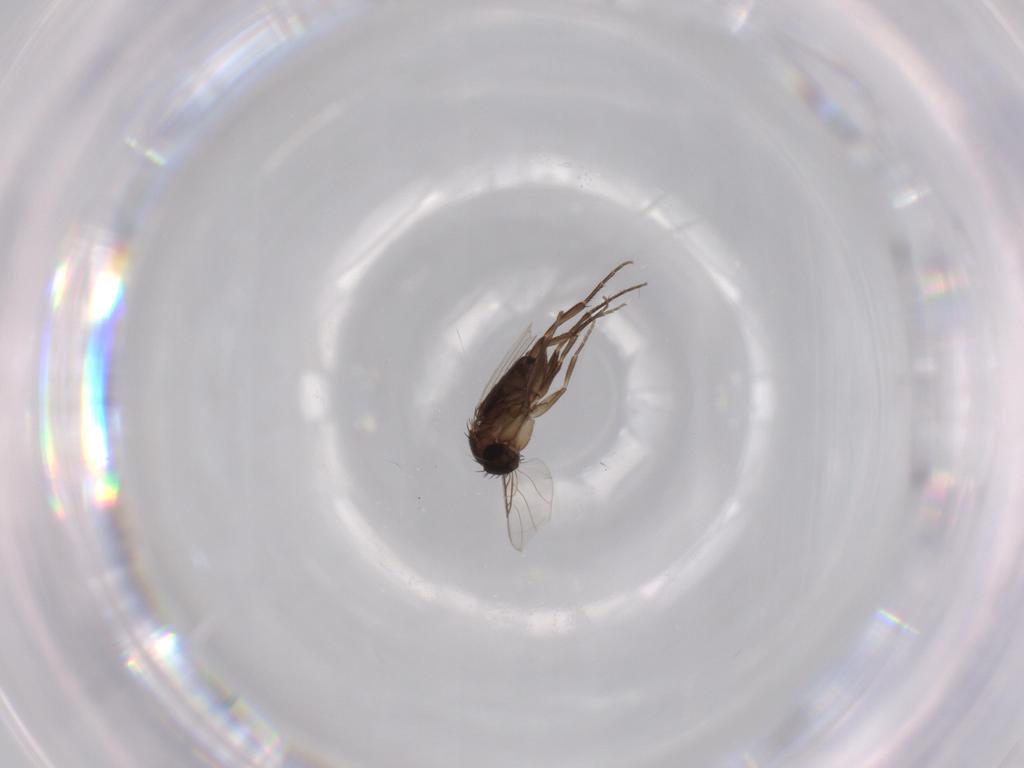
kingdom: Animalia
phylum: Arthropoda
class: Insecta
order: Diptera
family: Phoridae
